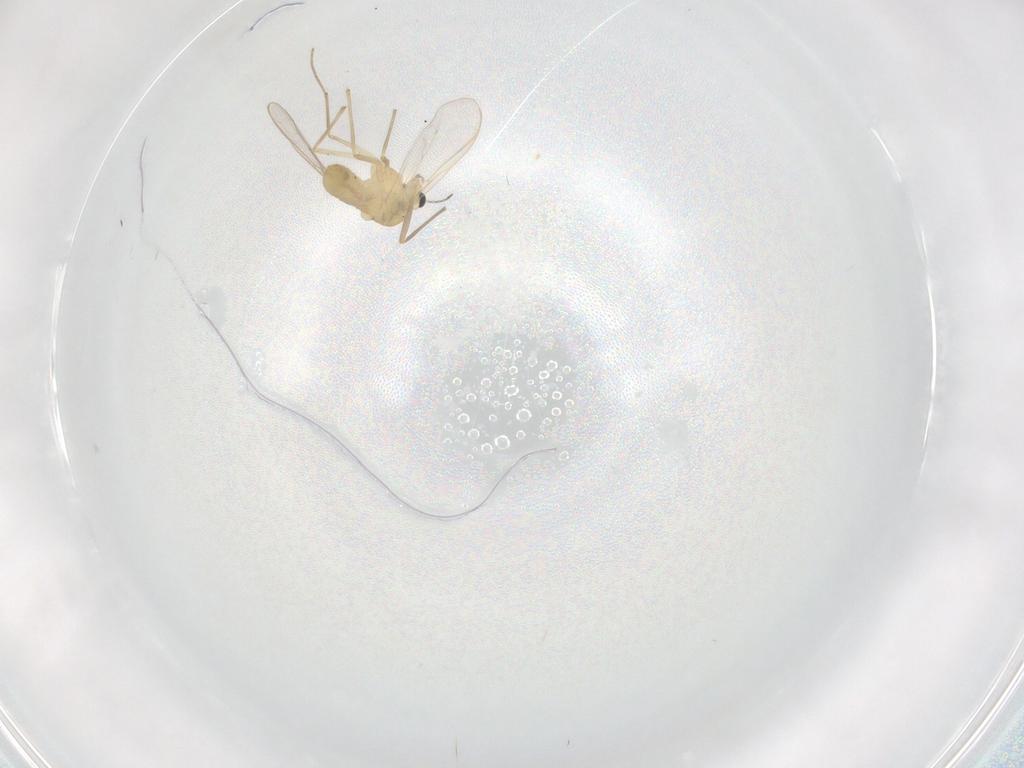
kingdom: Animalia
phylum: Arthropoda
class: Insecta
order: Diptera
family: Chironomidae
